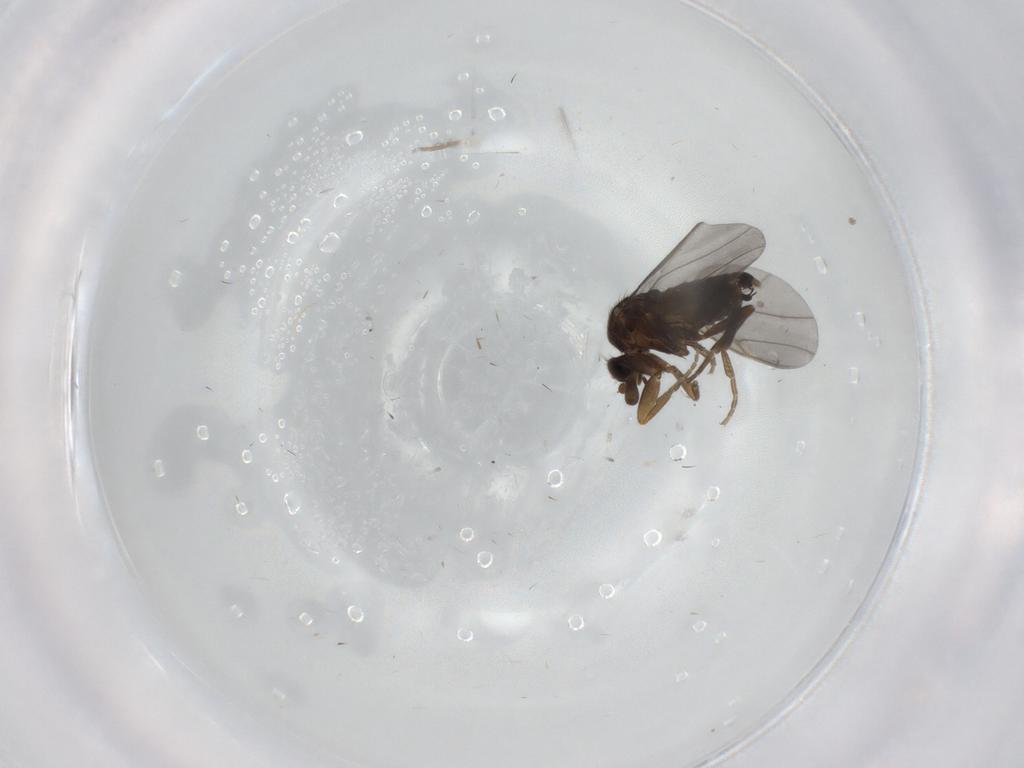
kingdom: Animalia
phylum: Arthropoda
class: Insecta
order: Diptera
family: Phoridae
